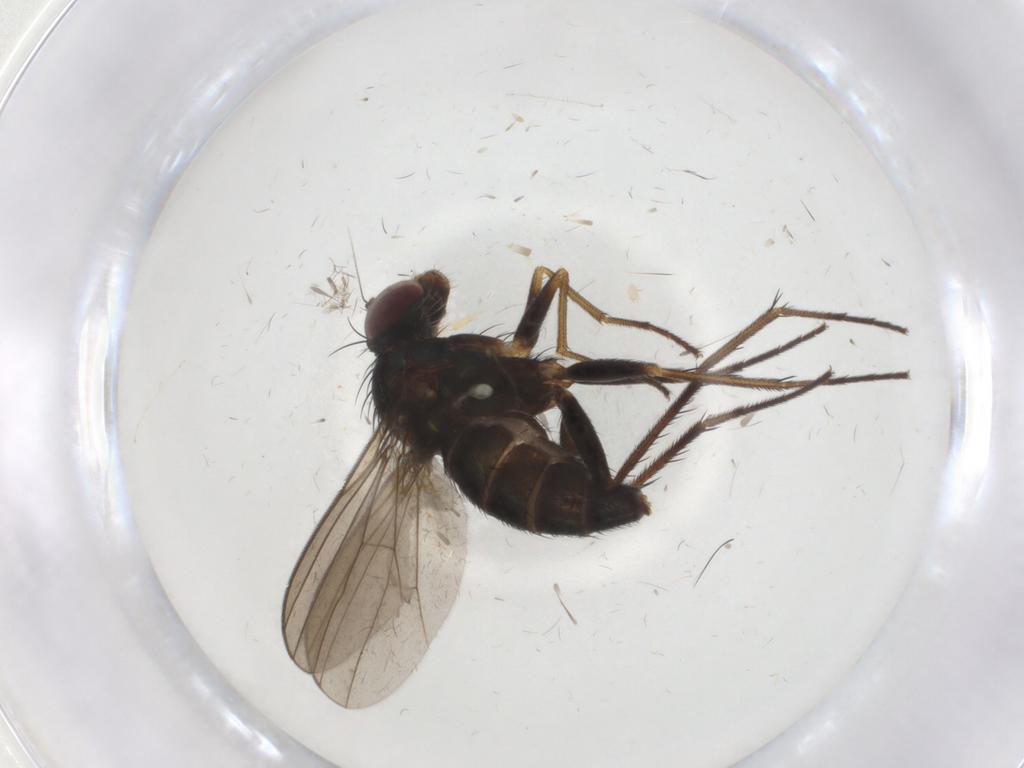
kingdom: Animalia
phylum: Arthropoda
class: Insecta
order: Diptera
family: Dolichopodidae
